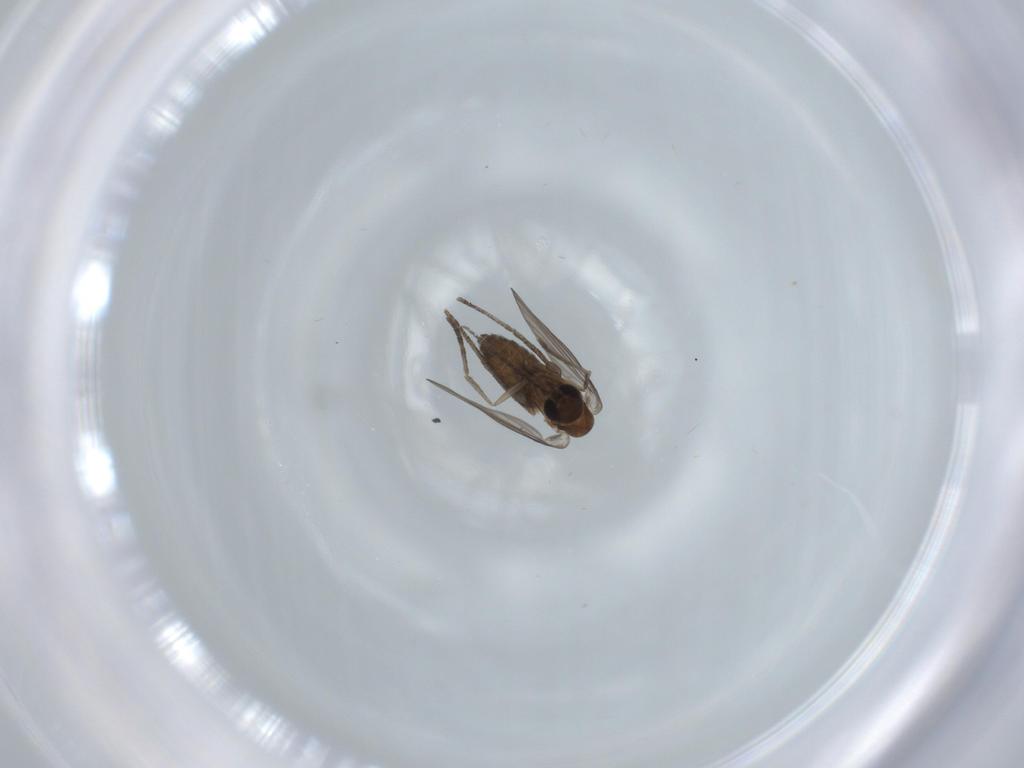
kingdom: Animalia
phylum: Arthropoda
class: Insecta
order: Diptera
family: Psychodidae
